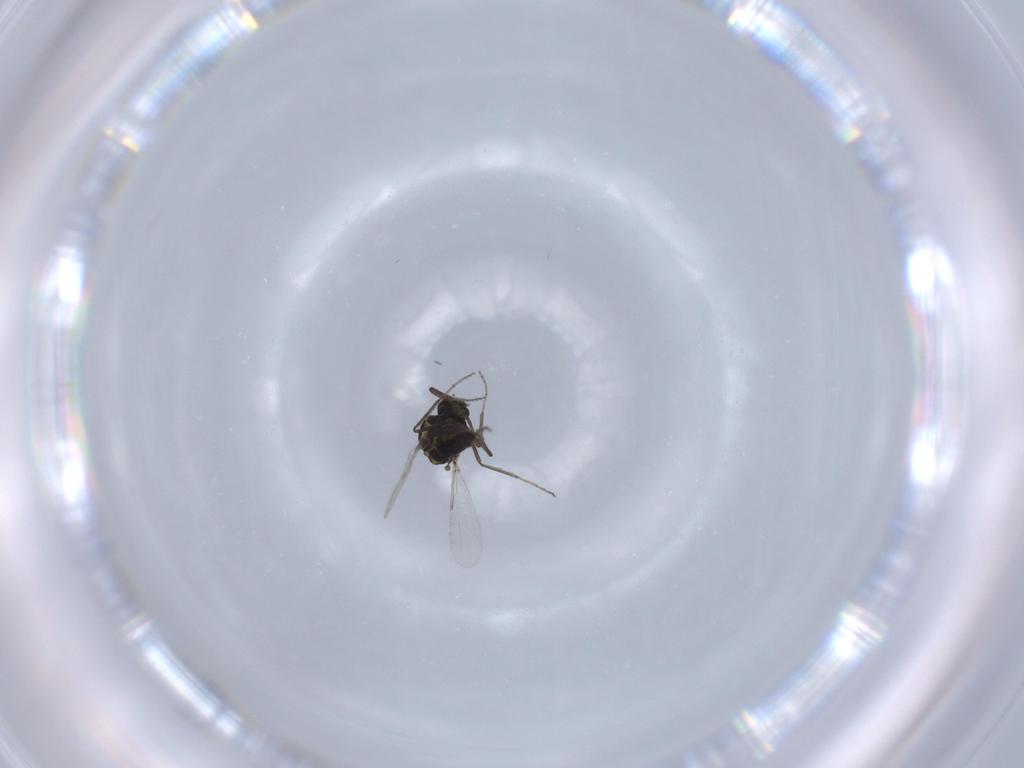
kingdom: Animalia
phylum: Arthropoda
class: Insecta
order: Diptera
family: Ceratopogonidae
